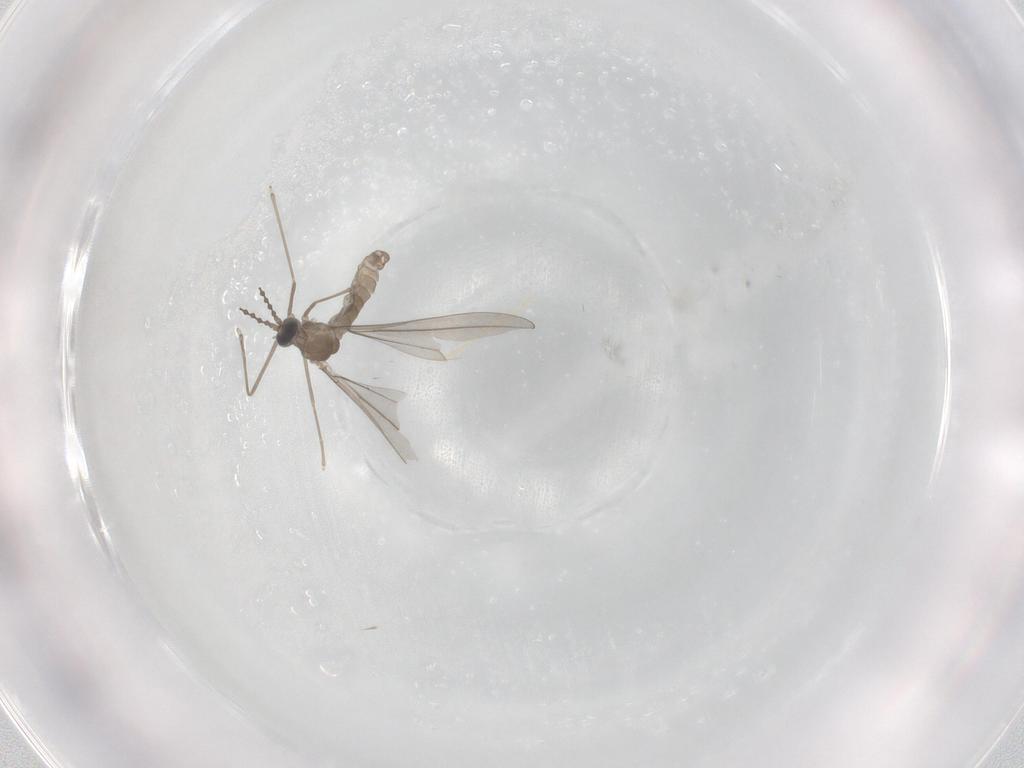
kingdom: Animalia
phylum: Arthropoda
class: Insecta
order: Diptera
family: Cecidomyiidae
